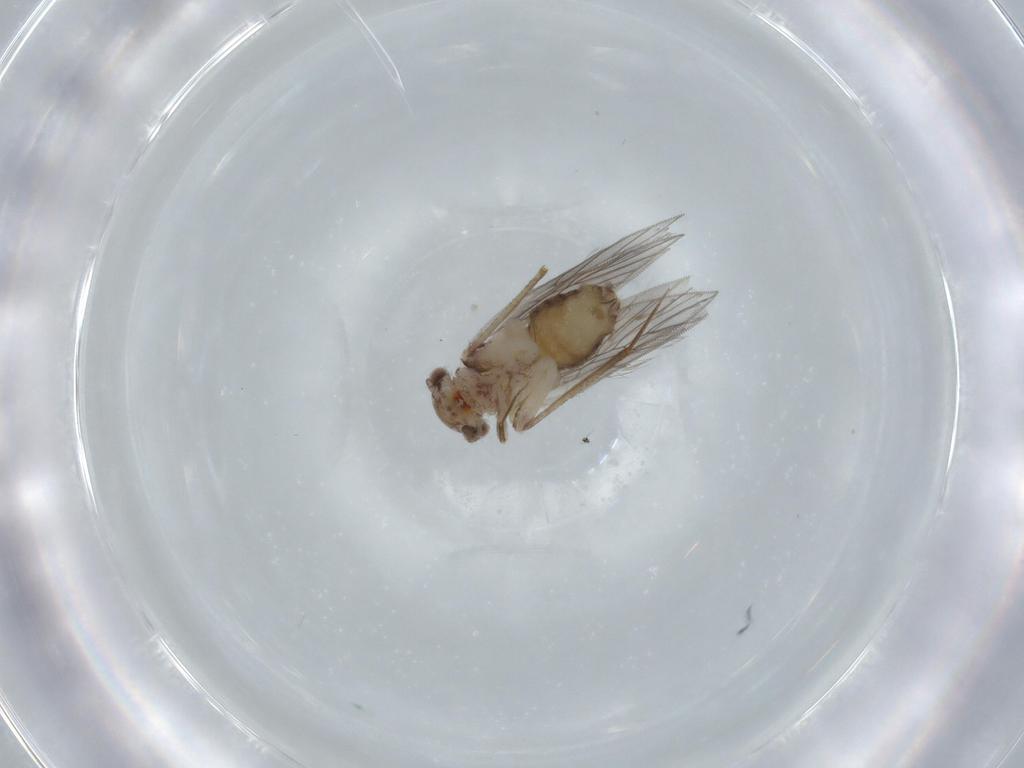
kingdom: Animalia
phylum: Arthropoda
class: Insecta
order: Psocodea
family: Lepidopsocidae
